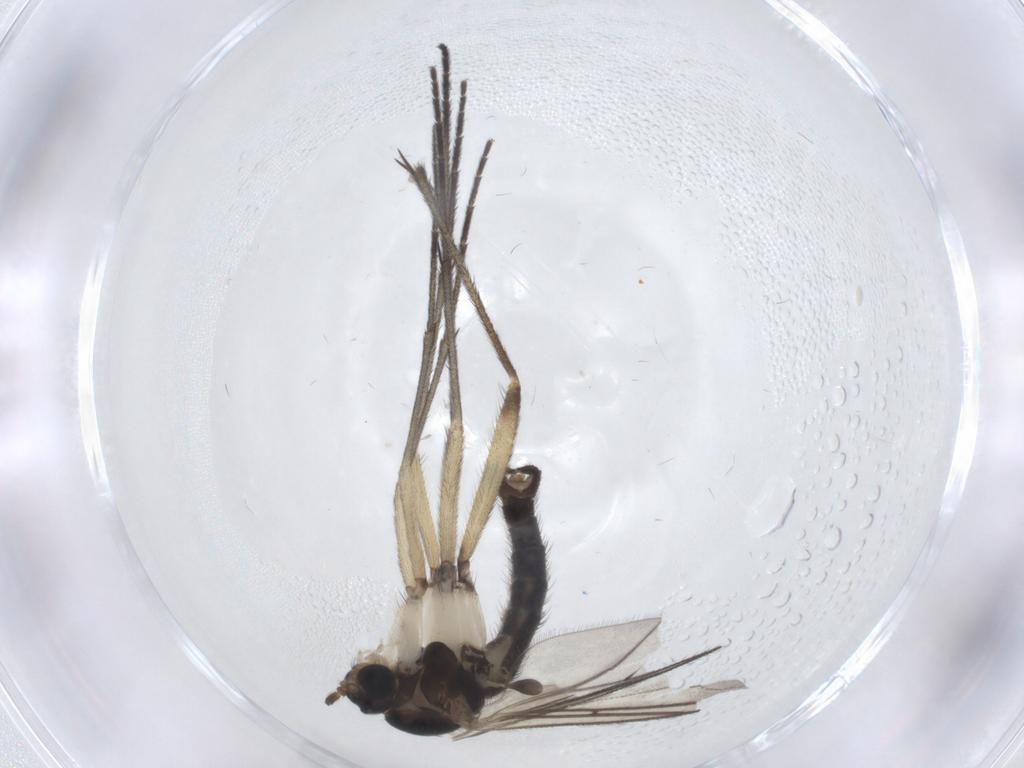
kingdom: Animalia
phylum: Arthropoda
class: Insecta
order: Diptera
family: Sciaridae
